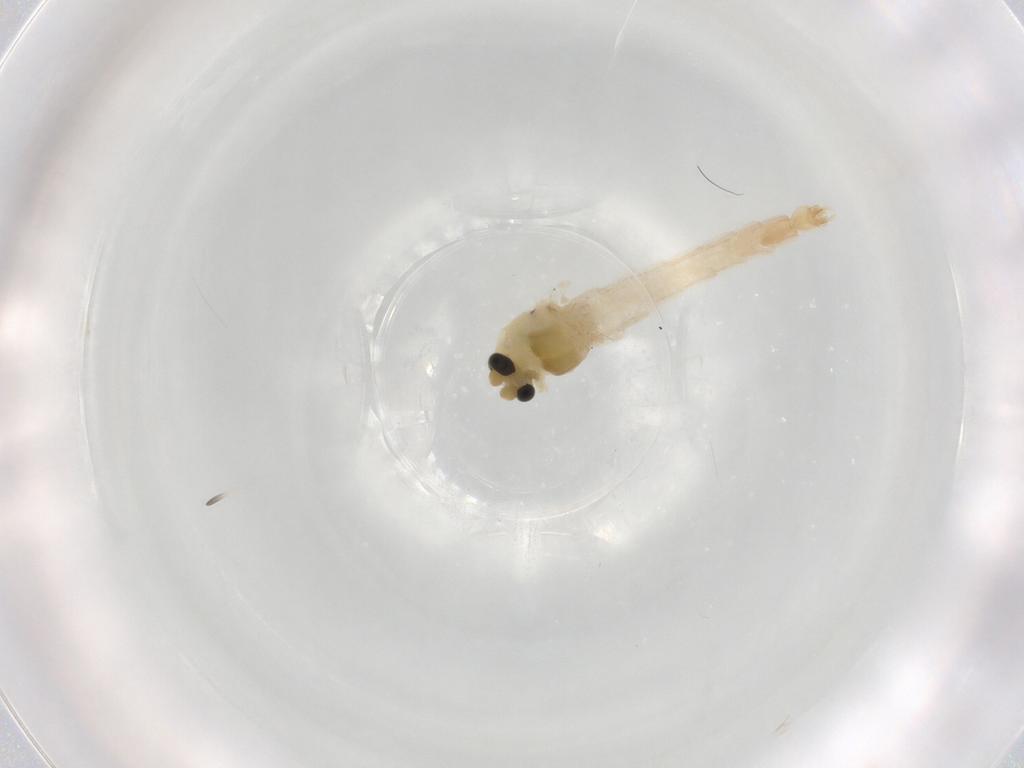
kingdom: Animalia
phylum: Arthropoda
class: Insecta
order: Diptera
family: Chironomidae
